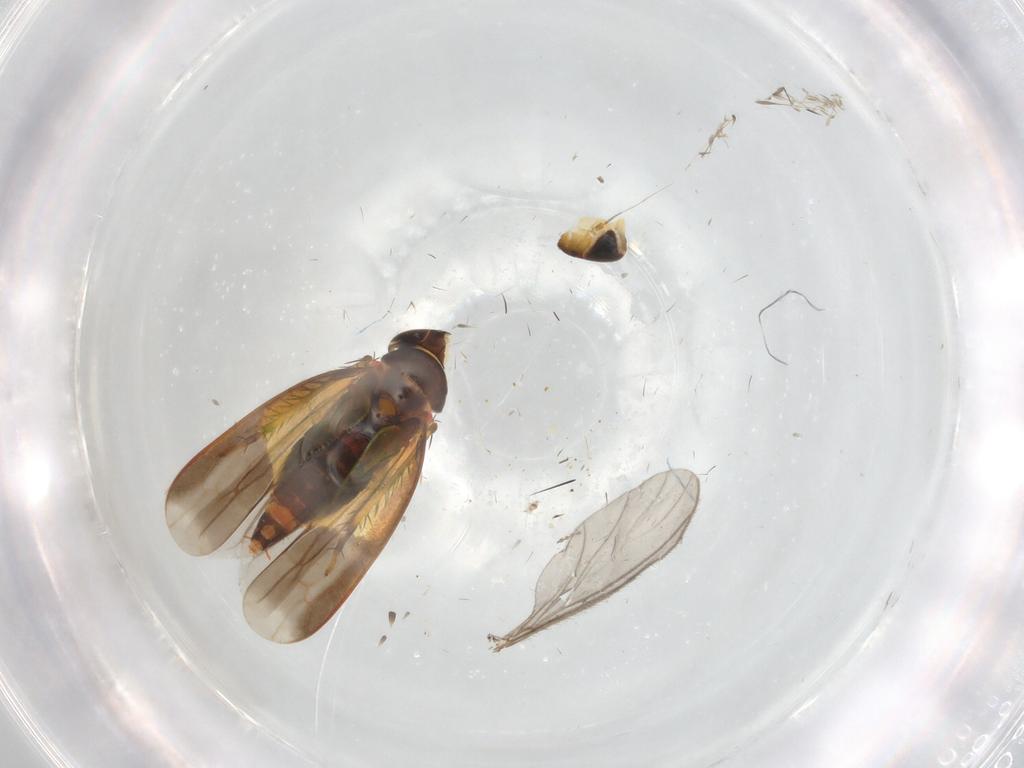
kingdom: Animalia
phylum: Arthropoda
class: Insecta
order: Hemiptera
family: Cicadellidae
